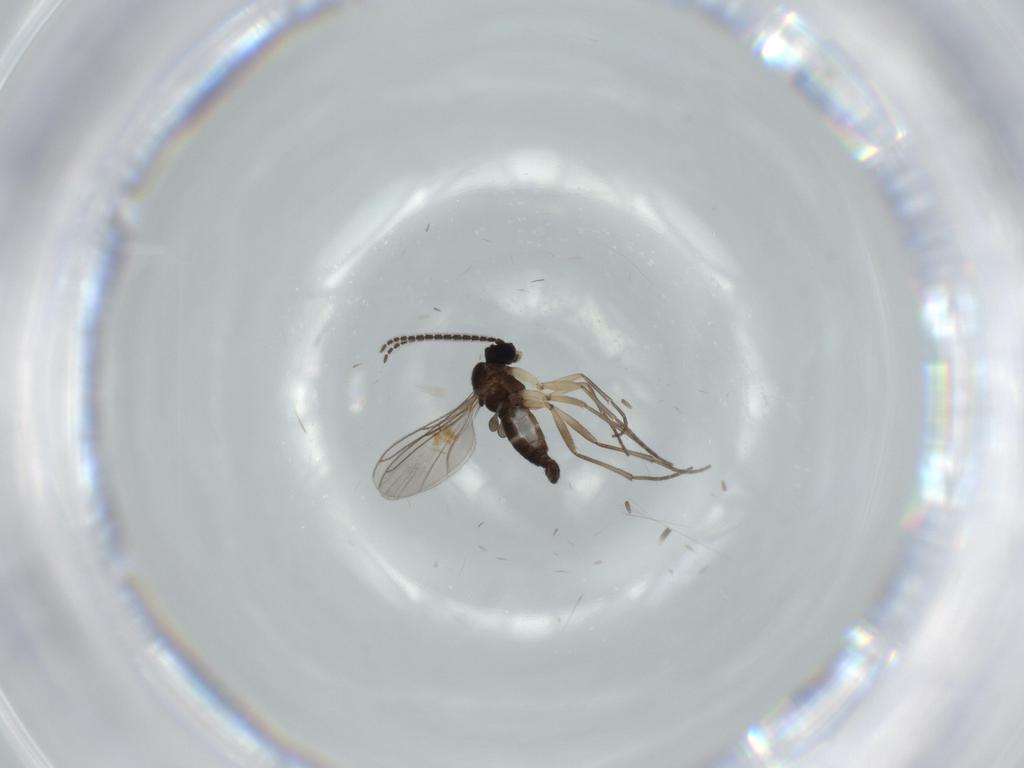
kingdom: Animalia
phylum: Arthropoda
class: Insecta
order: Diptera
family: Sciaridae
